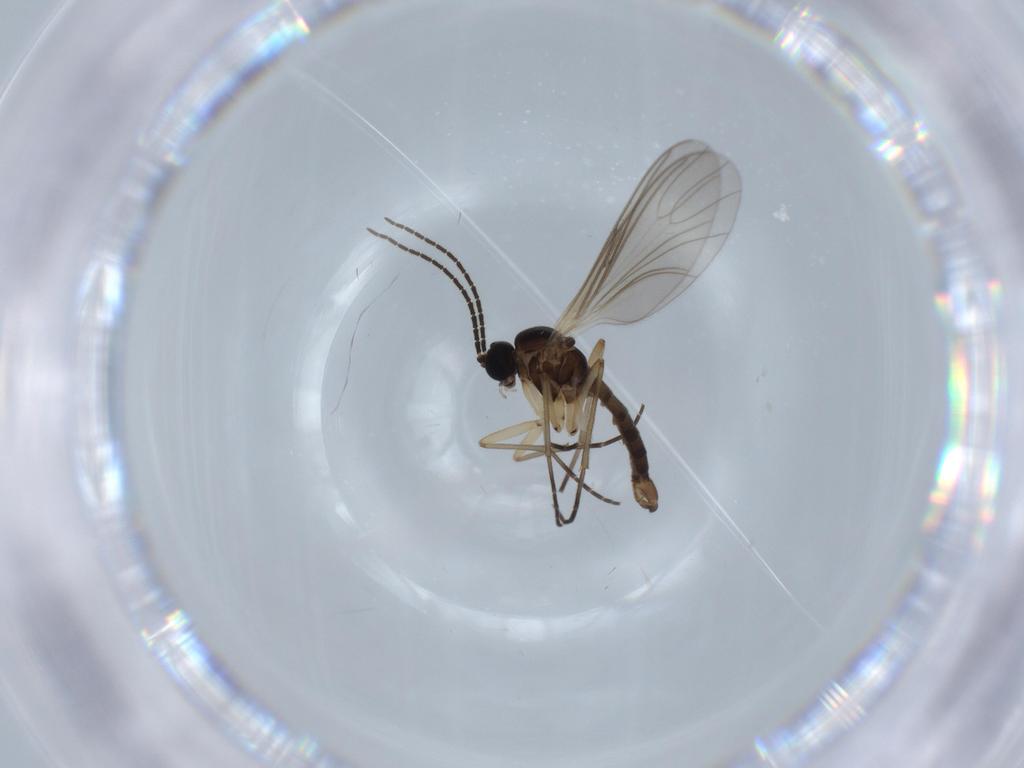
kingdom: Animalia
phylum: Arthropoda
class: Insecta
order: Diptera
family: Sciaridae
